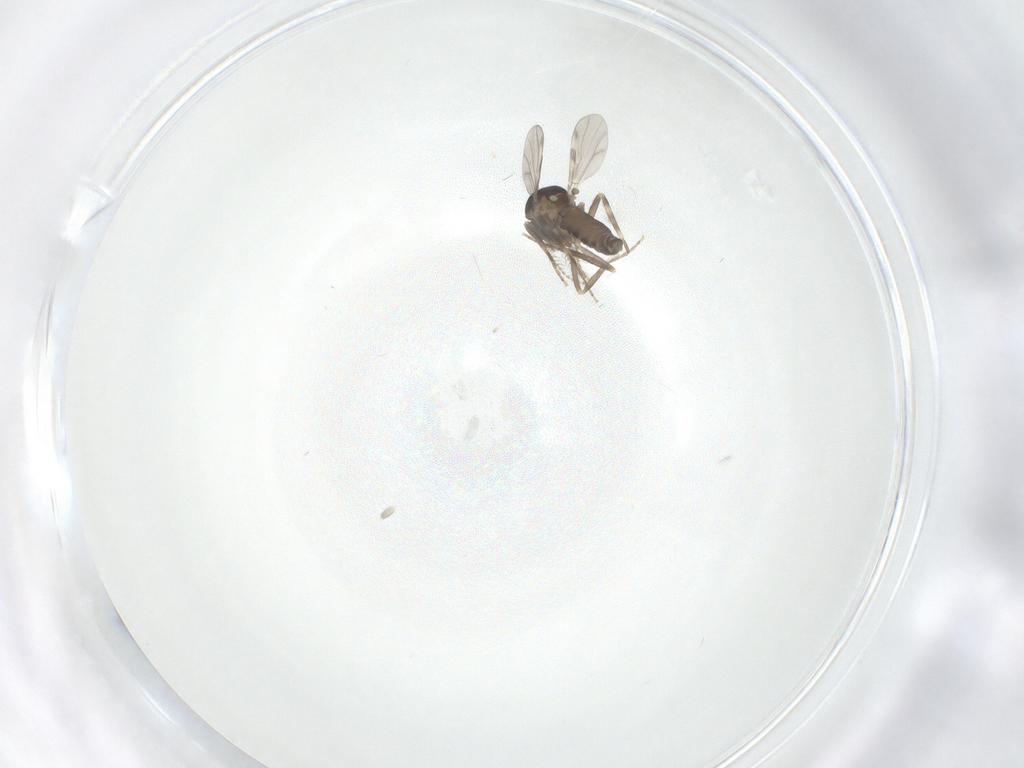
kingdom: Animalia
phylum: Arthropoda
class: Insecta
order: Diptera
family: Ceratopogonidae
